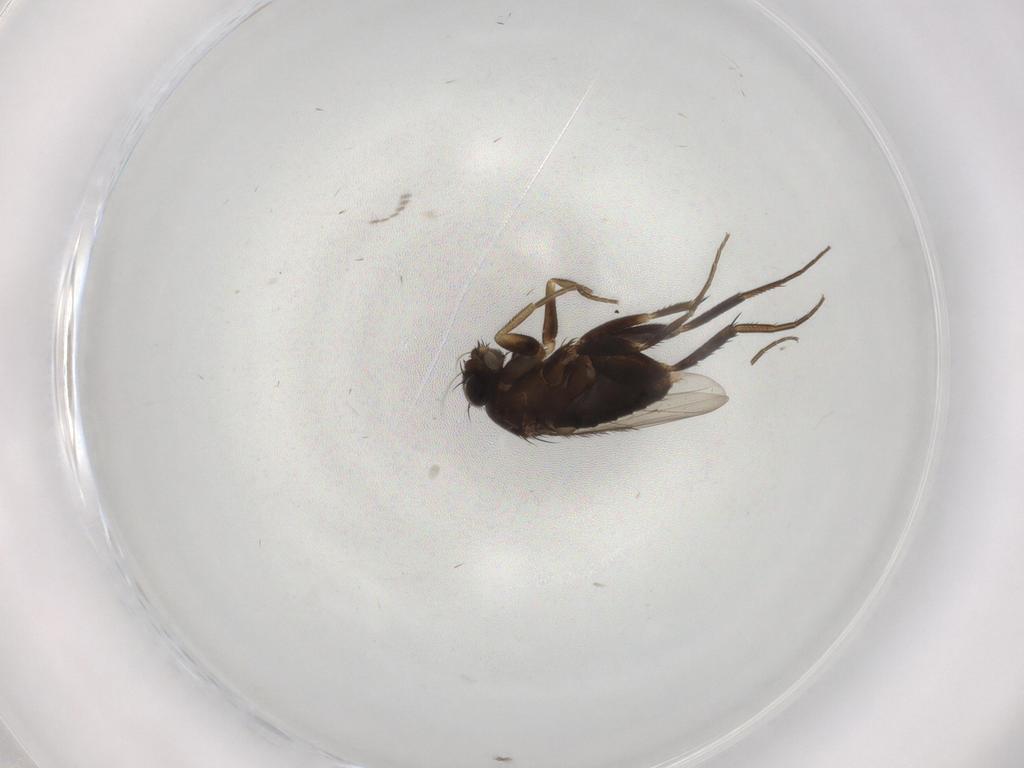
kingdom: Animalia
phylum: Arthropoda
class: Insecta
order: Diptera
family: Phoridae
